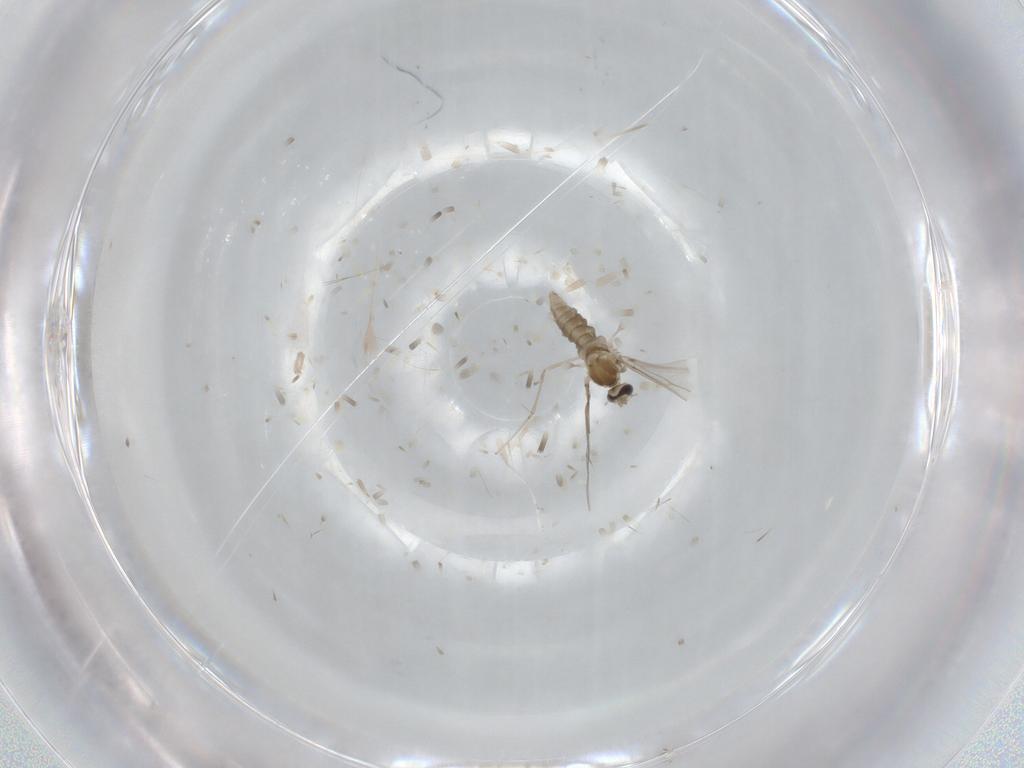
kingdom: Animalia
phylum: Arthropoda
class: Insecta
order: Diptera
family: Cecidomyiidae
